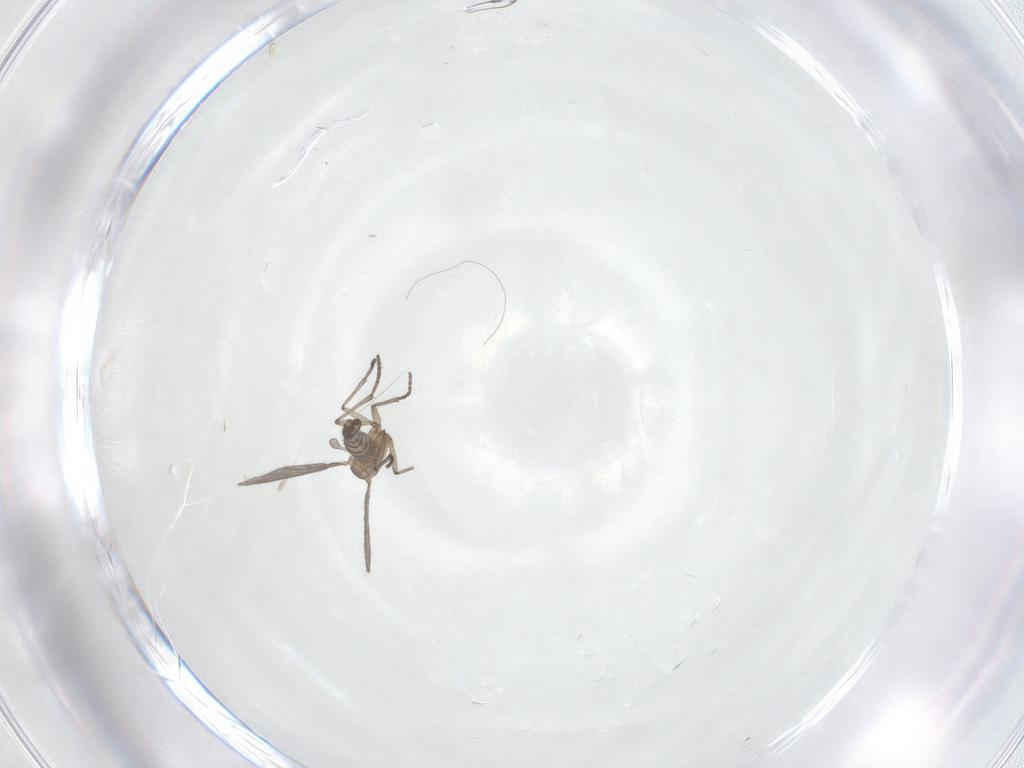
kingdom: Animalia
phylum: Arthropoda
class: Insecta
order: Diptera
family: Sciaridae
